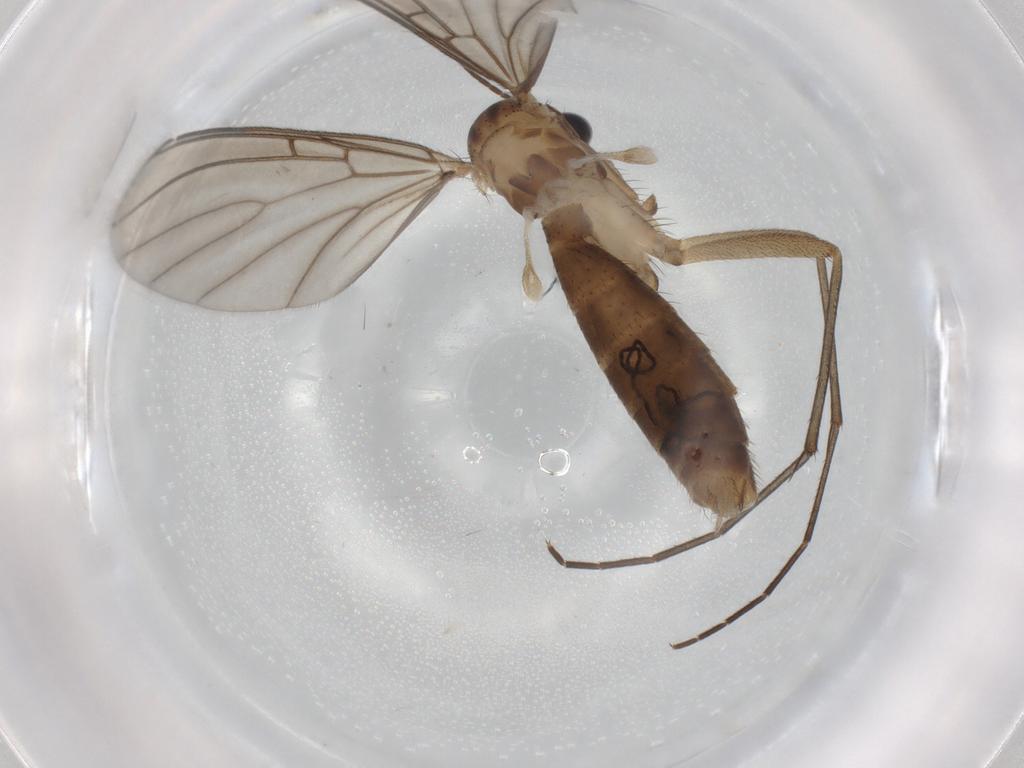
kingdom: Animalia
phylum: Arthropoda
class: Insecta
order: Diptera
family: Mycetophilidae
